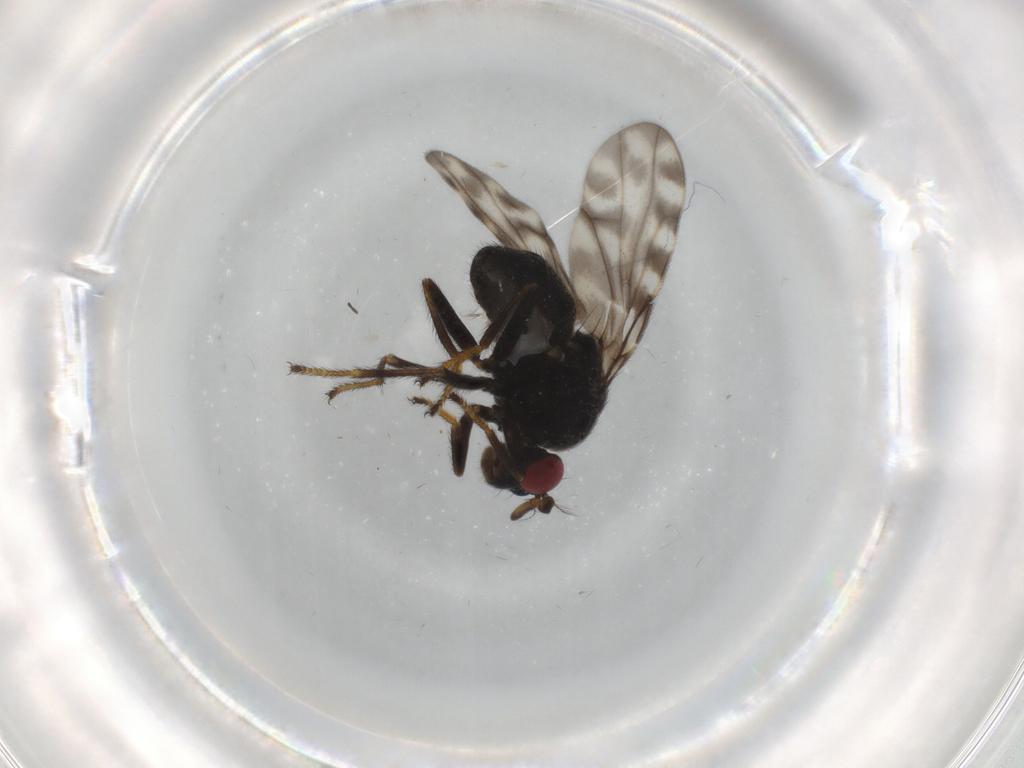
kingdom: Animalia
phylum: Arthropoda
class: Insecta
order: Diptera
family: Ephydridae
